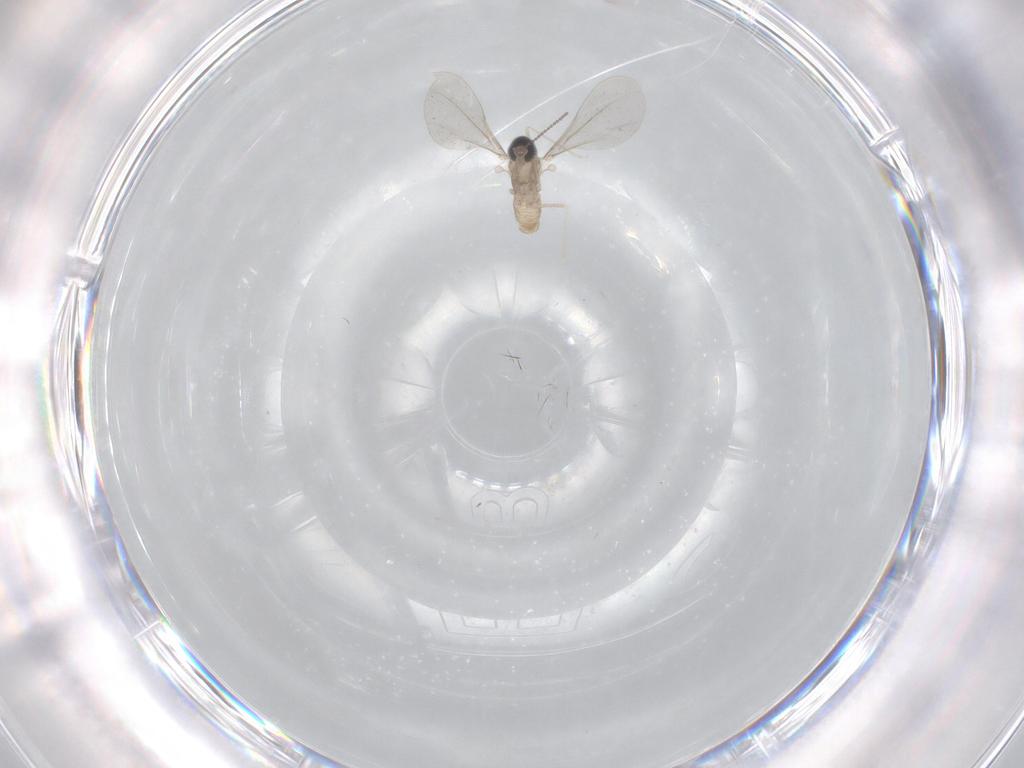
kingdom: Animalia
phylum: Arthropoda
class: Insecta
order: Diptera
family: Cecidomyiidae
